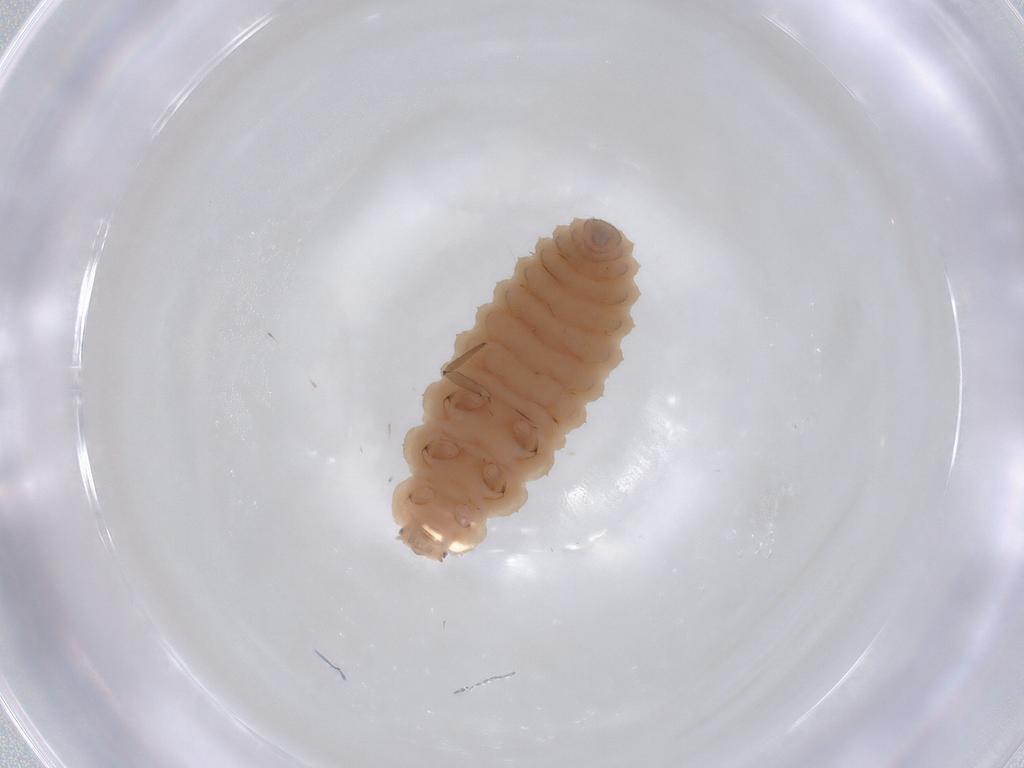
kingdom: Animalia
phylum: Arthropoda
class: Insecta
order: Coleoptera
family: Coccinellidae
